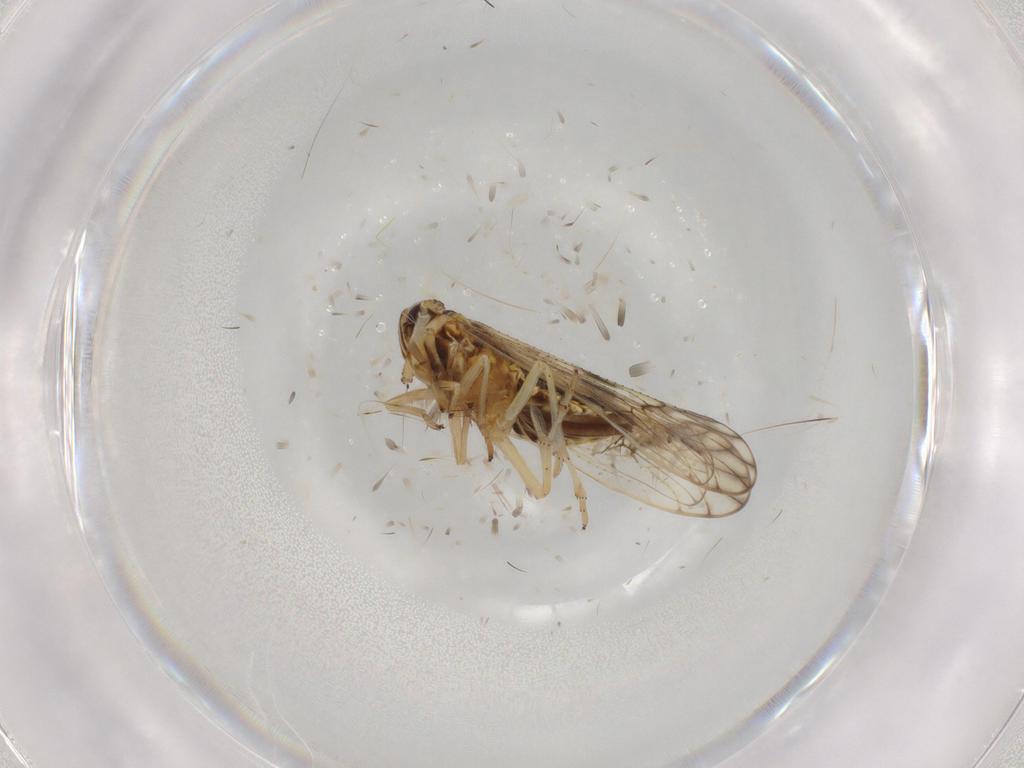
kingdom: Animalia
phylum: Arthropoda
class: Insecta
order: Hemiptera
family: Delphacidae
